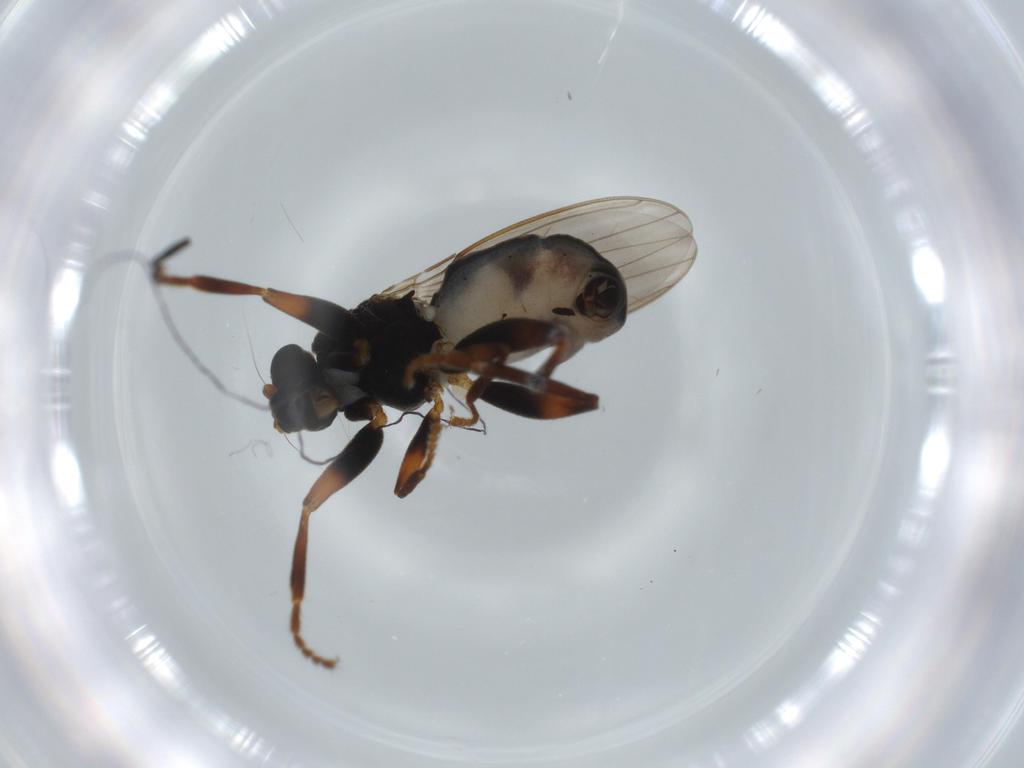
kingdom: Animalia
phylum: Arthropoda
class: Insecta
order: Diptera
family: Sphaeroceridae
